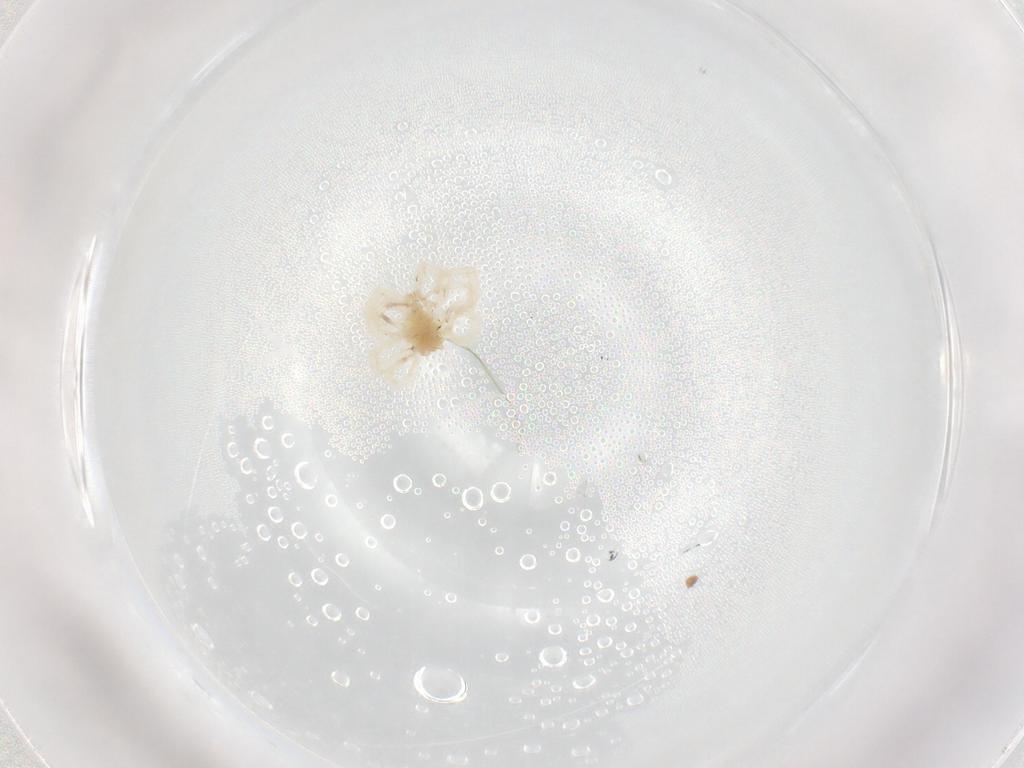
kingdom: Animalia
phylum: Arthropoda
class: Arachnida
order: Trombidiformes
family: Anystidae
